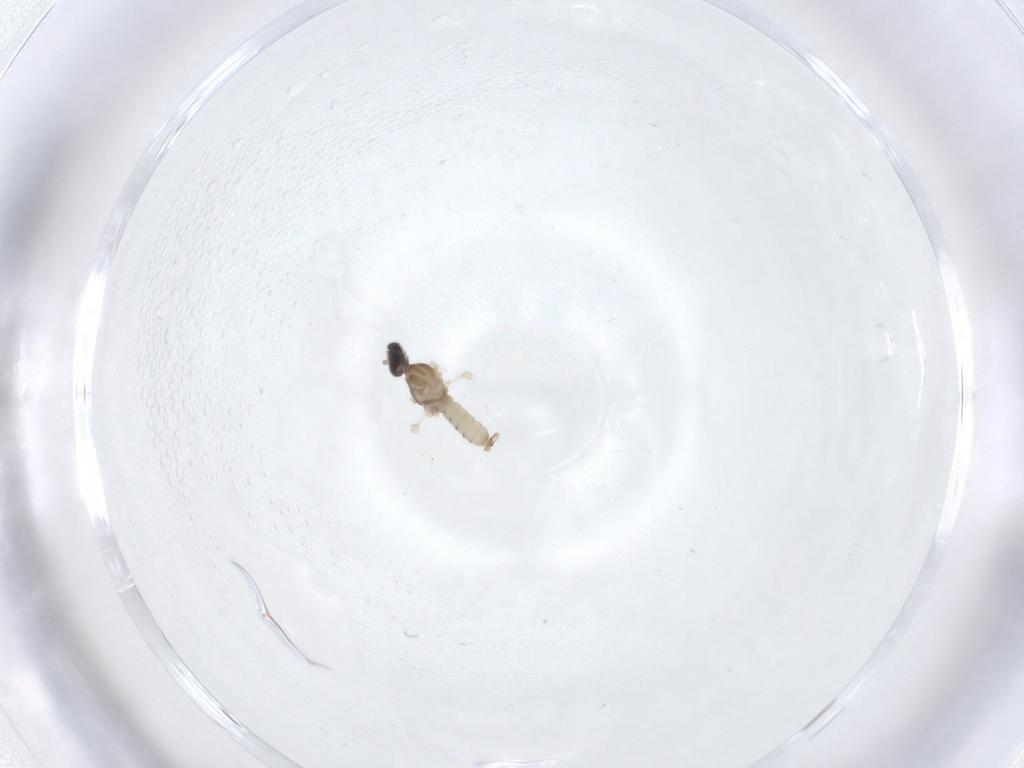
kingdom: Animalia
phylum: Arthropoda
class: Insecta
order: Diptera
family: Cecidomyiidae
